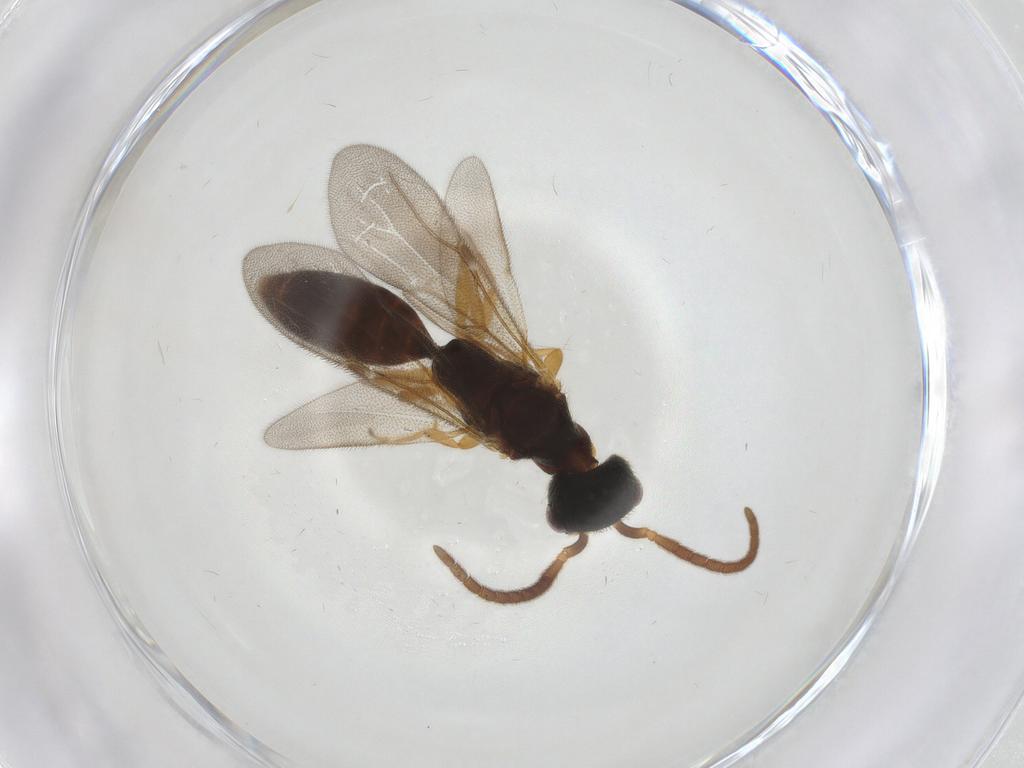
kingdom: Animalia
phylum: Arthropoda
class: Insecta
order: Hymenoptera
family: Bethylidae
